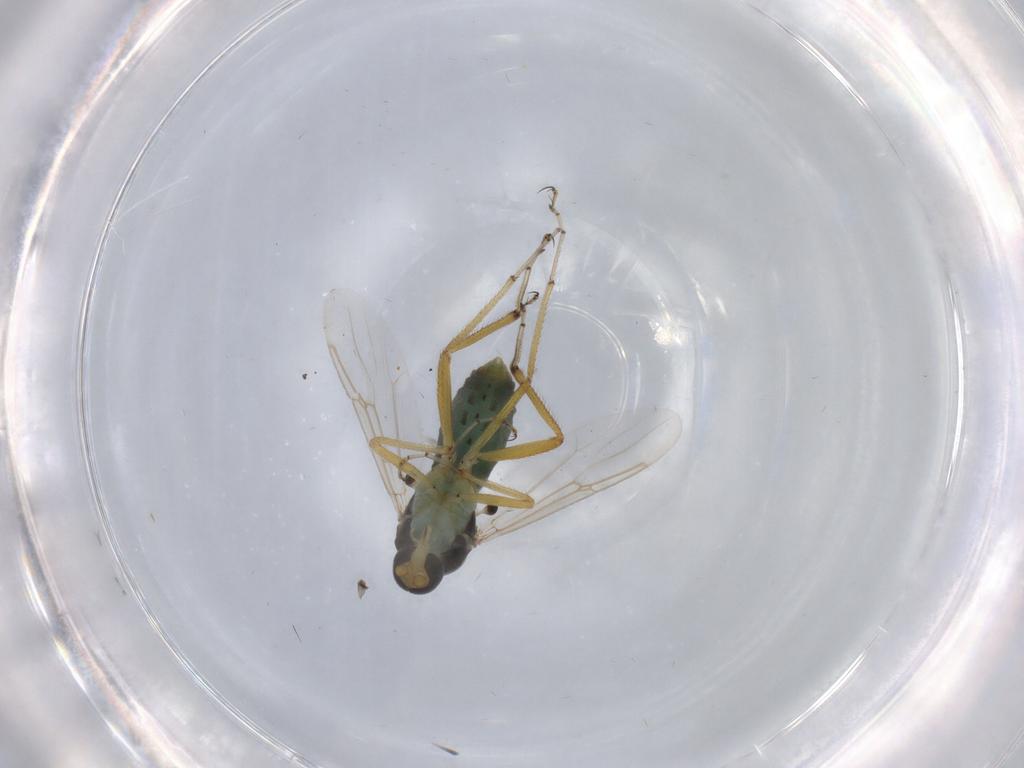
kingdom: Animalia
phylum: Arthropoda
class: Insecta
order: Diptera
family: Ceratopogonidae
